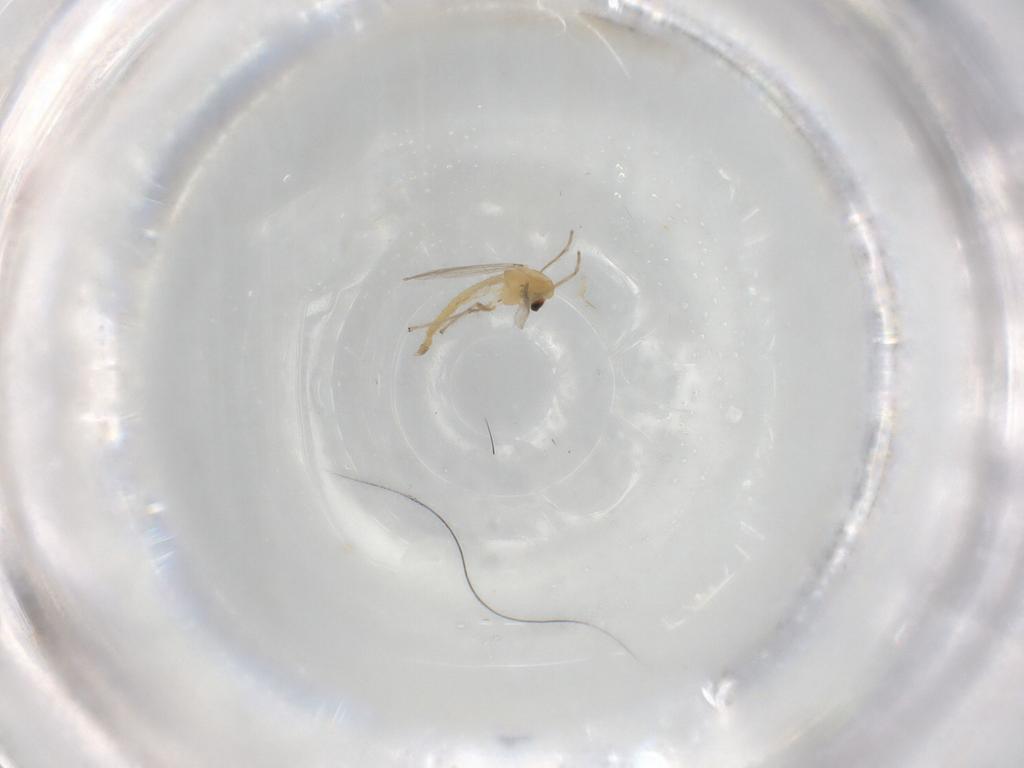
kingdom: Animalia
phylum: Arthropoda
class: Insecta
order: Diptera
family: Chironomidae
